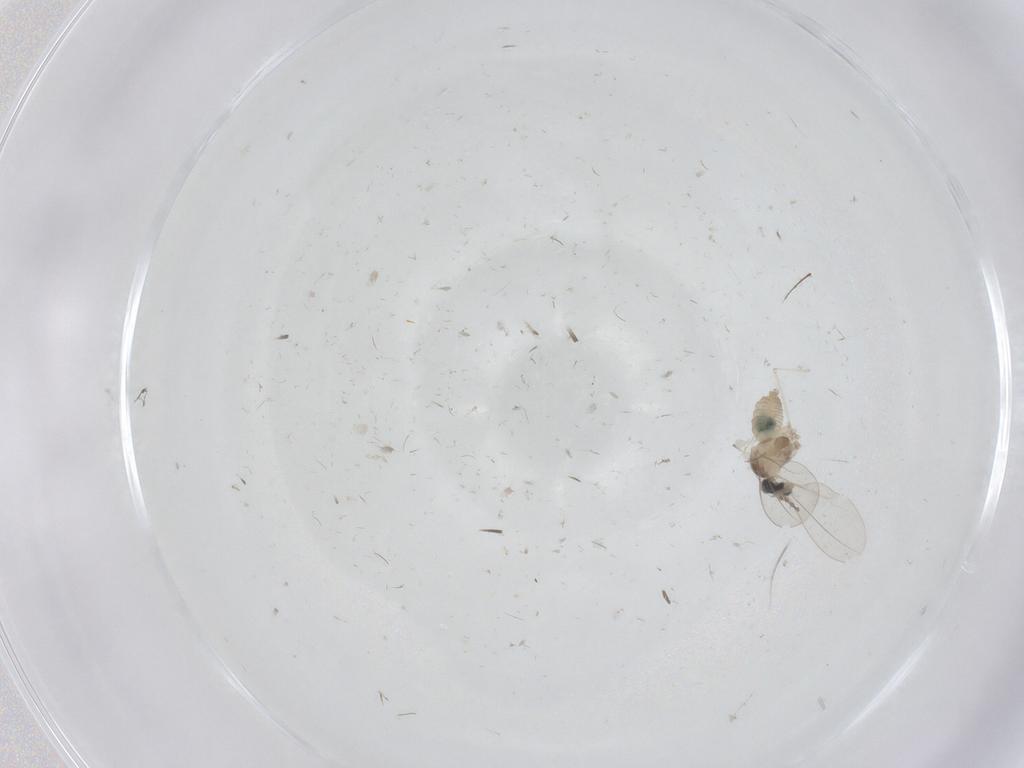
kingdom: Animalia
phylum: Arthropoda
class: Insecta
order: Diptera
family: Cecidomyiidae
